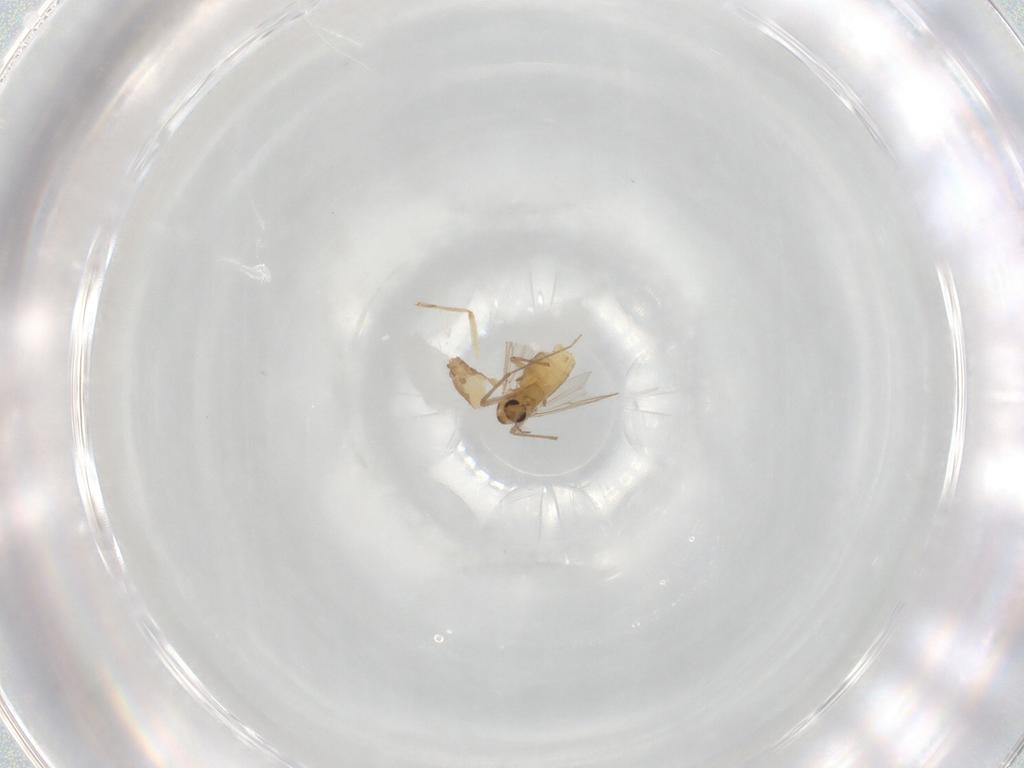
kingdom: Animalia
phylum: Arthropoda
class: Insecta
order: Diptera
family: Chironomidae
